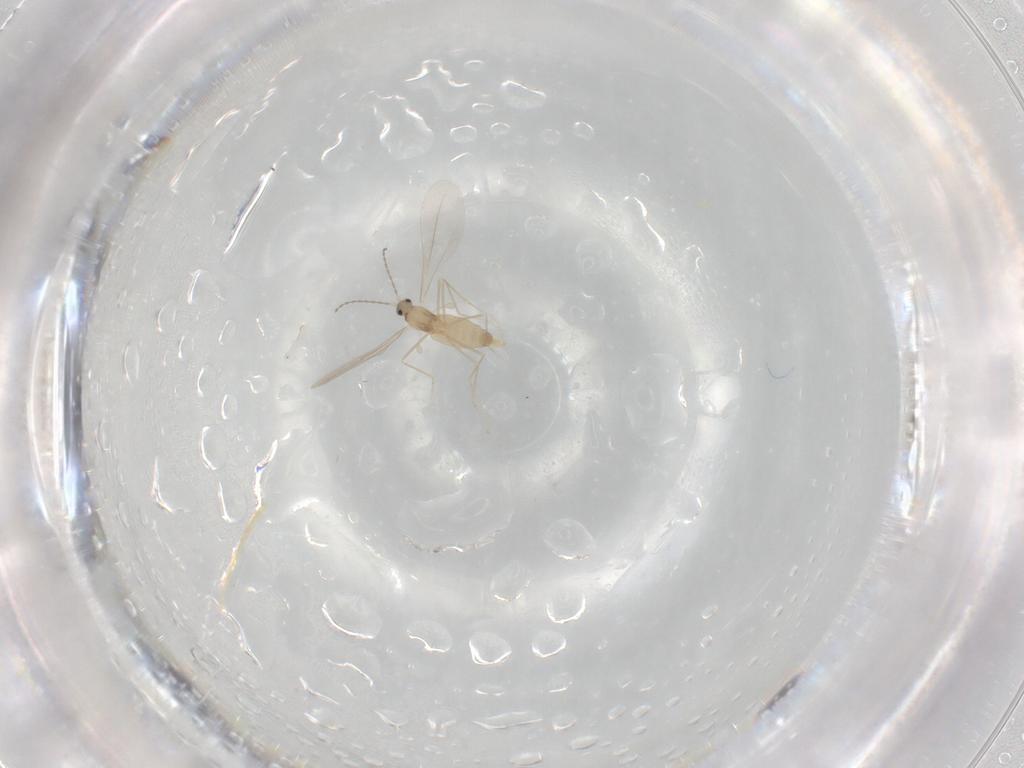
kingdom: Animalia
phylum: Arthropoda
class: Insecta
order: Diptera
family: Cecidomyiidae
